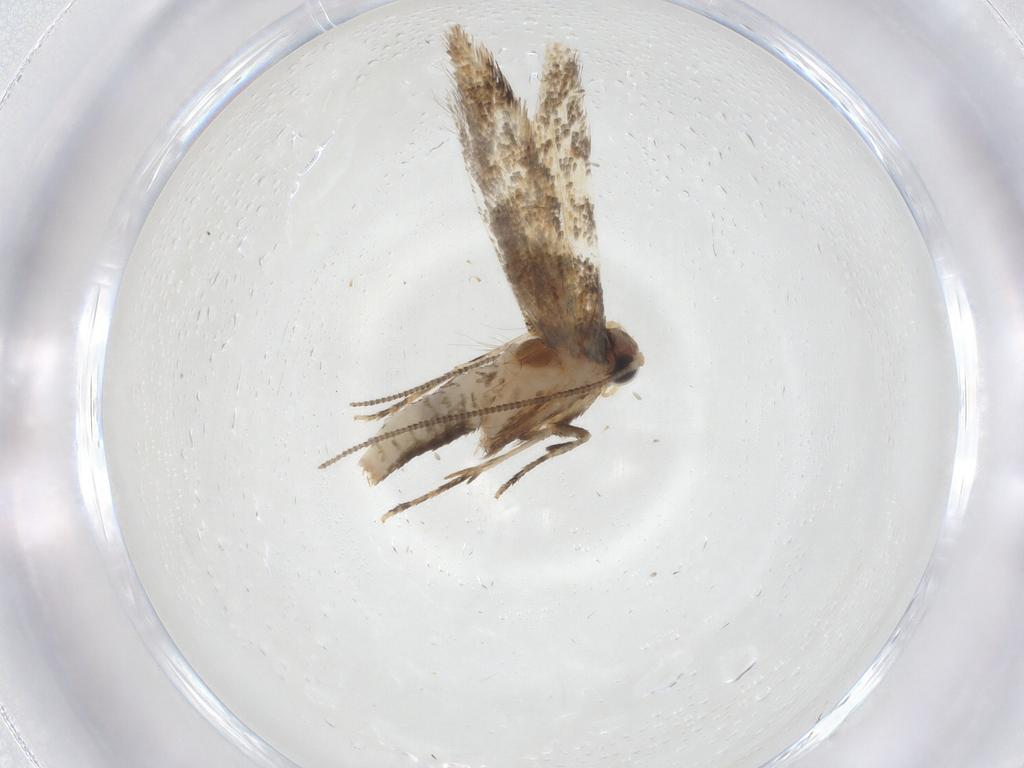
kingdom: Animalia
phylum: Arthropoda
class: Insecta
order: Lepidoptera
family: Tineidae
